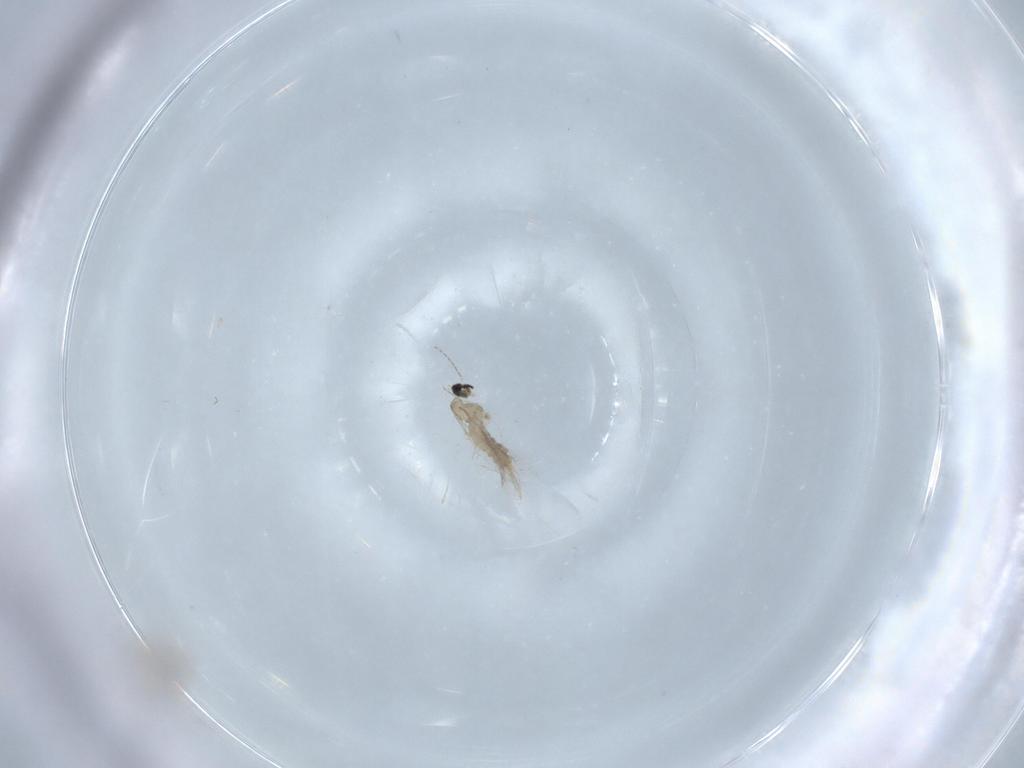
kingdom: Animalia
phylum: Arthropoda
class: Insecta
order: Diptera
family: Cecidomyiidae
